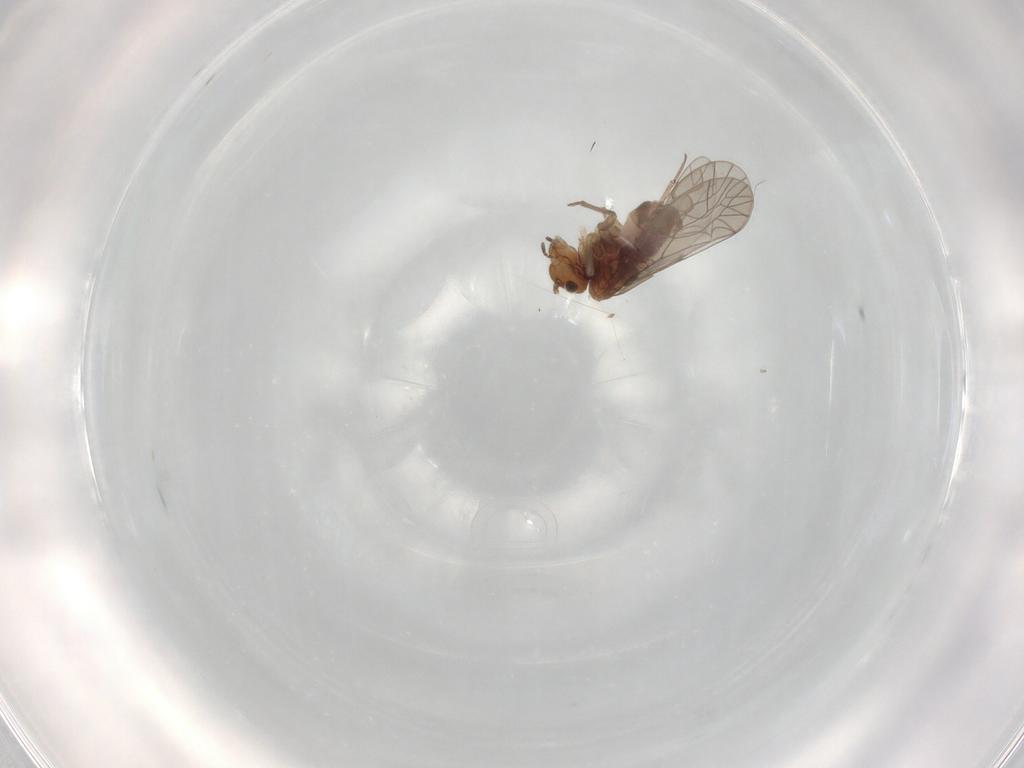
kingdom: Animalia
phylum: Arthropoda
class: Insecta
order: Psocodea
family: Lachesillidae
